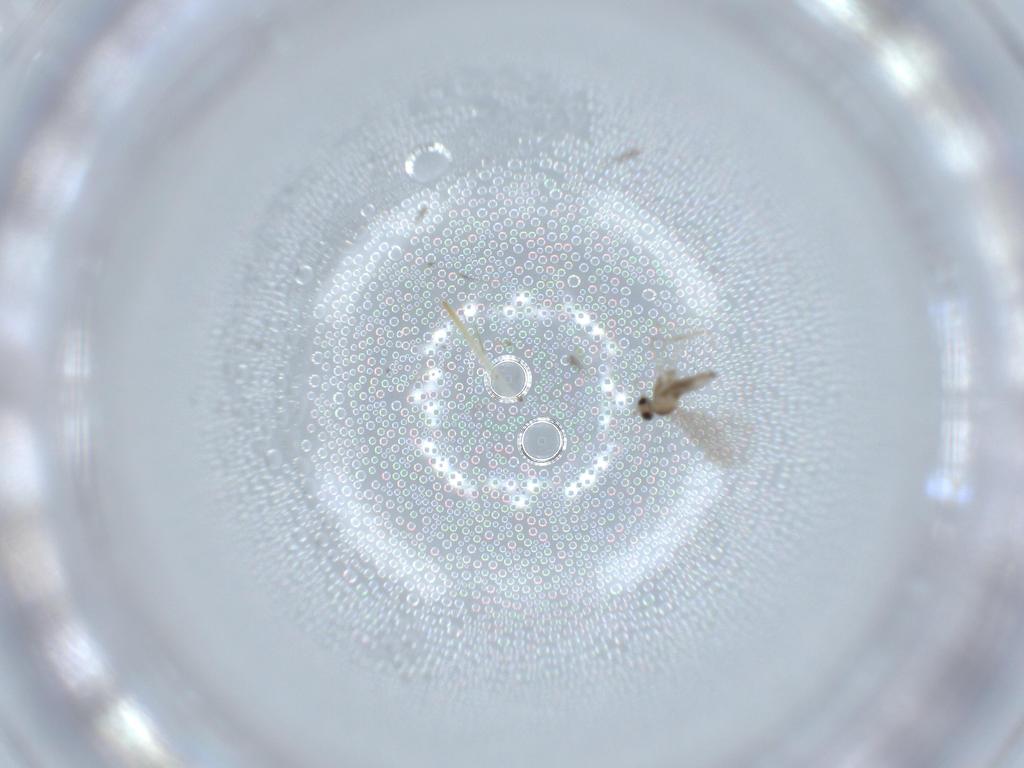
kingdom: Animalia
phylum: Arthropoda
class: Insecta
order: Diptera
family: Cecidomyiidae
